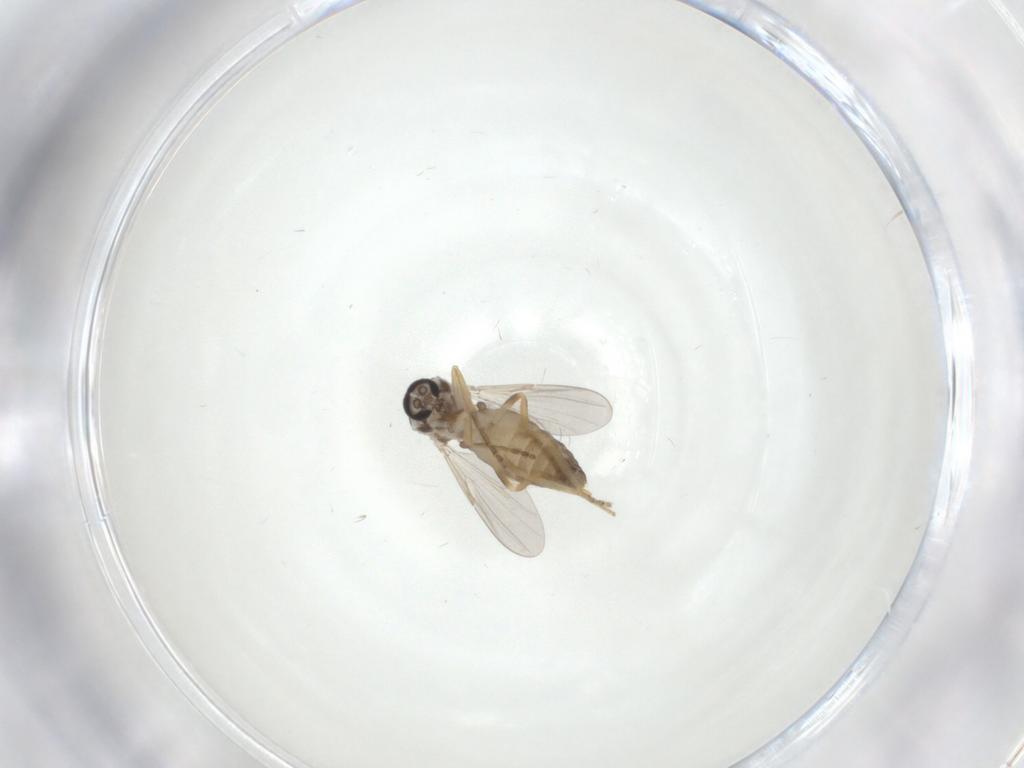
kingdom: Animalia
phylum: Arthropoda
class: Insecta
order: Diptera
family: Ceratopogonidae
